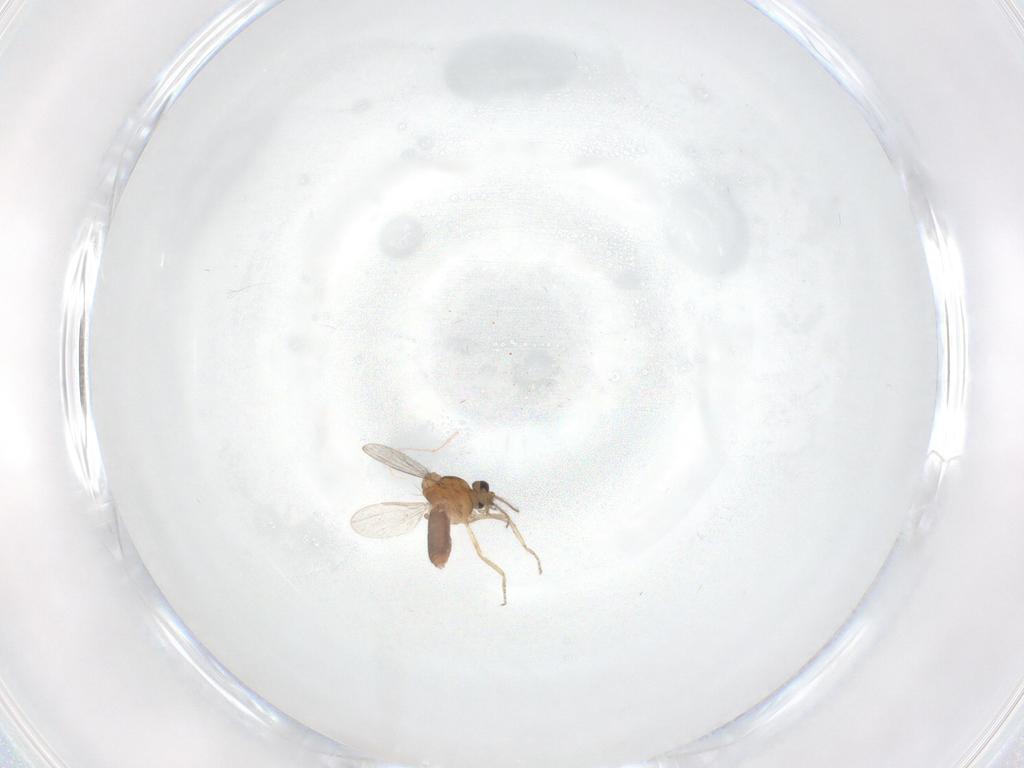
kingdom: Animalia
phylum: Arthropoda
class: Insecta
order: Diptera
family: Ceratopogonidae
